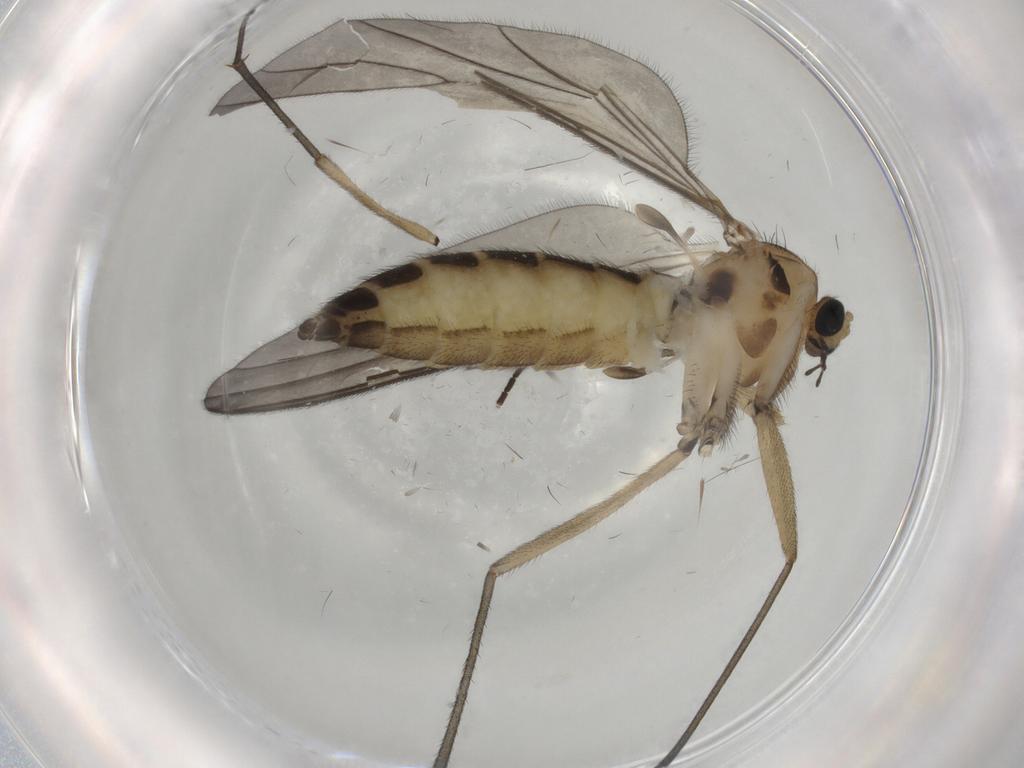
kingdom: Animalia
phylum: Arthropoda
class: Insecta
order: Diptera
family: Sciaridae
